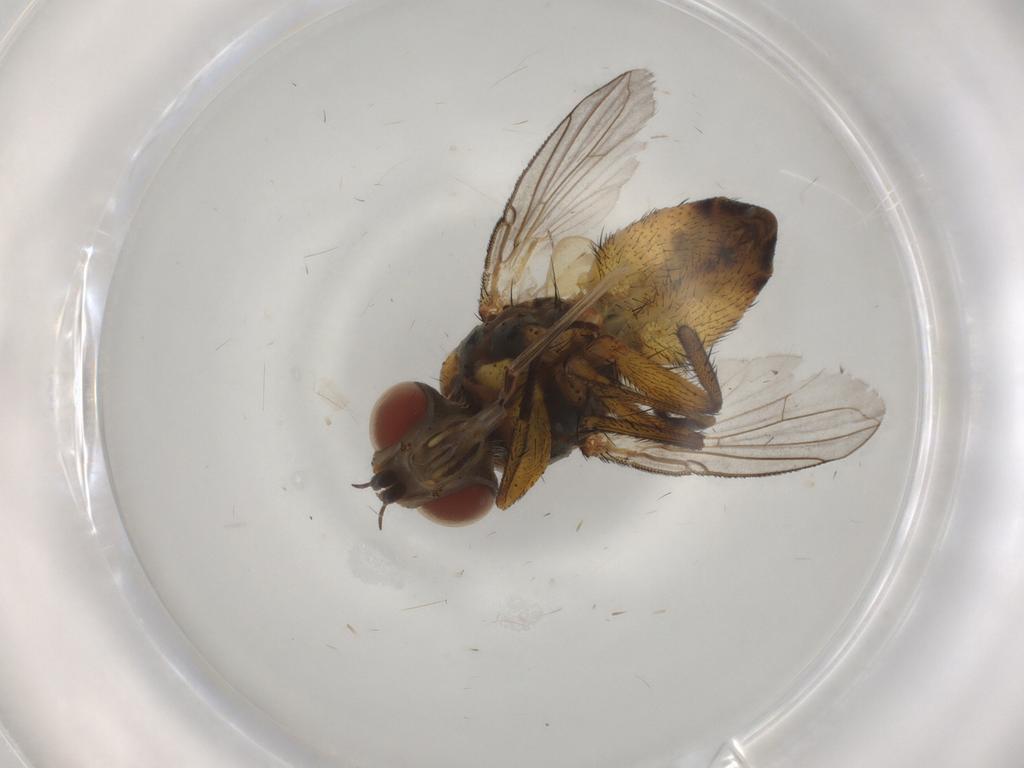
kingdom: Animalia
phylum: Arthropoda
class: Insecta
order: Diptera
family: Tachinidae
